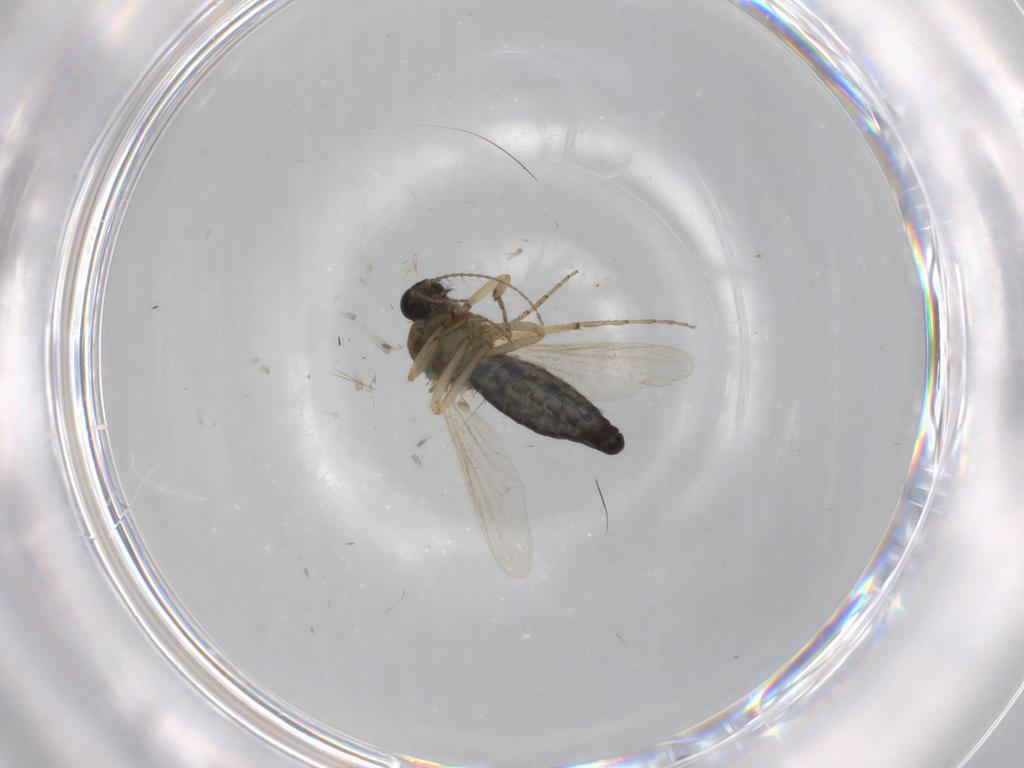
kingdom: Animalia
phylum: Arthropoda
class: Insecta
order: Diptera
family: Ceratopogonidae
